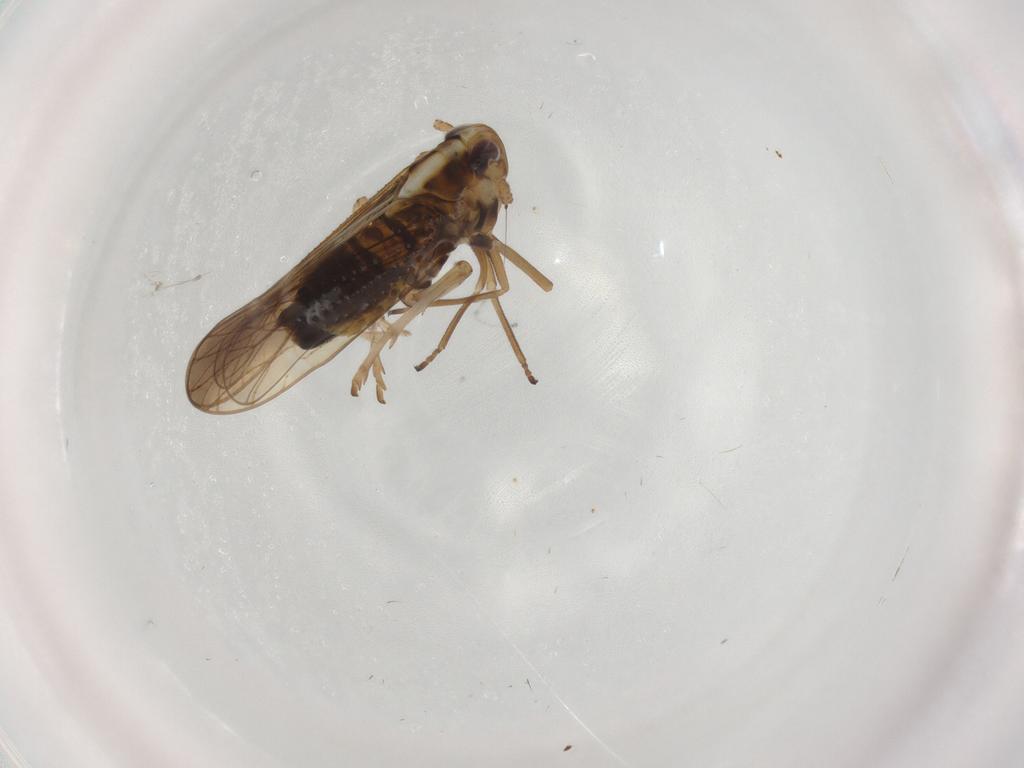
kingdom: Animalia
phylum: Arthropoda
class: Insecta
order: Hemiptera
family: Delphacidae
